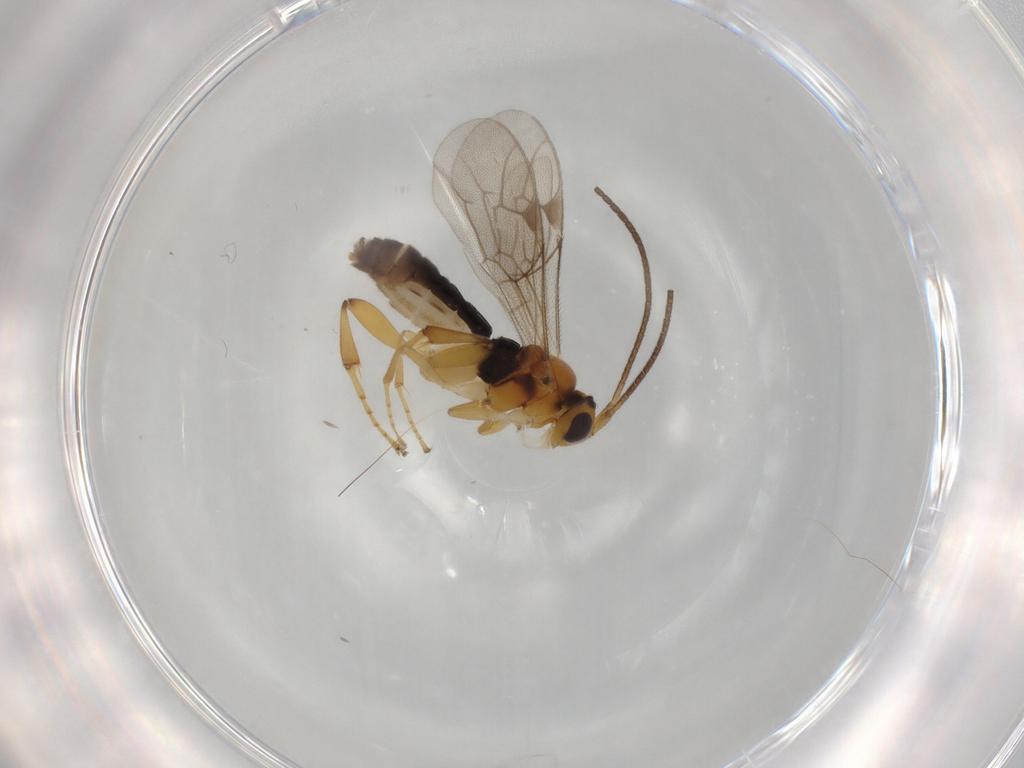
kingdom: Animalia
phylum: Arthropoda
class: Insecta
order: Hymenoptera
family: Ichneumonidae
